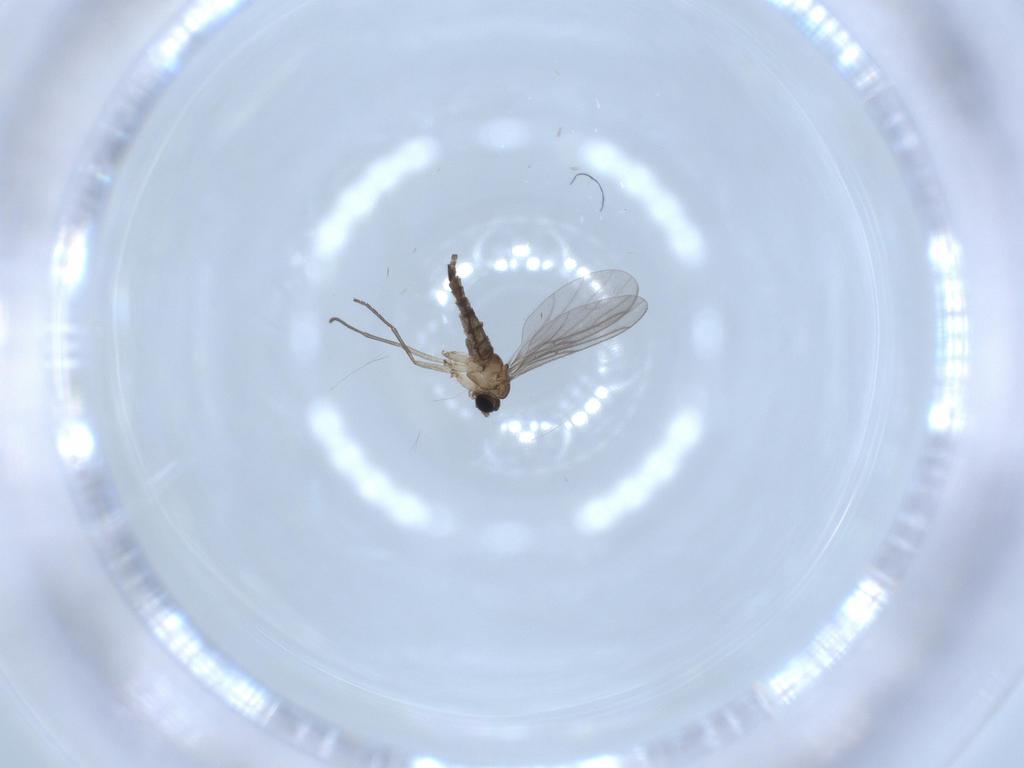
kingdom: Animalia
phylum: Arthropoda
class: Insecta
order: Diptera
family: Sciaridae
